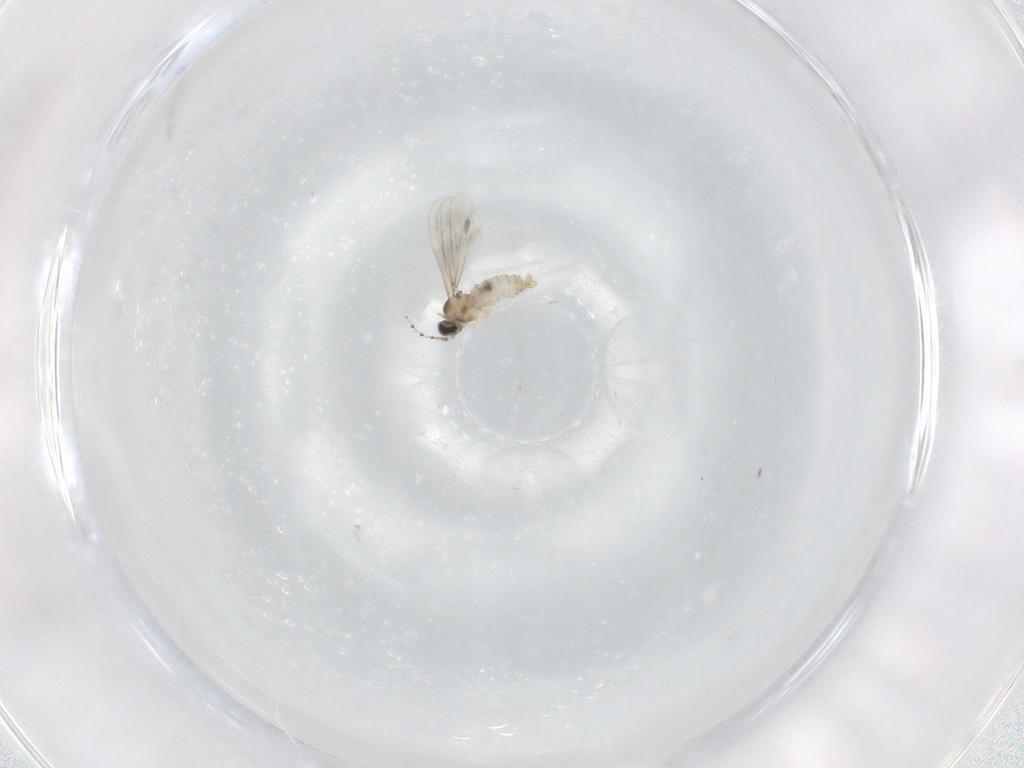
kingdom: Animalia
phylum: Arthropoda
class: Insecta
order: Diptera
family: Cecidomyiidae
